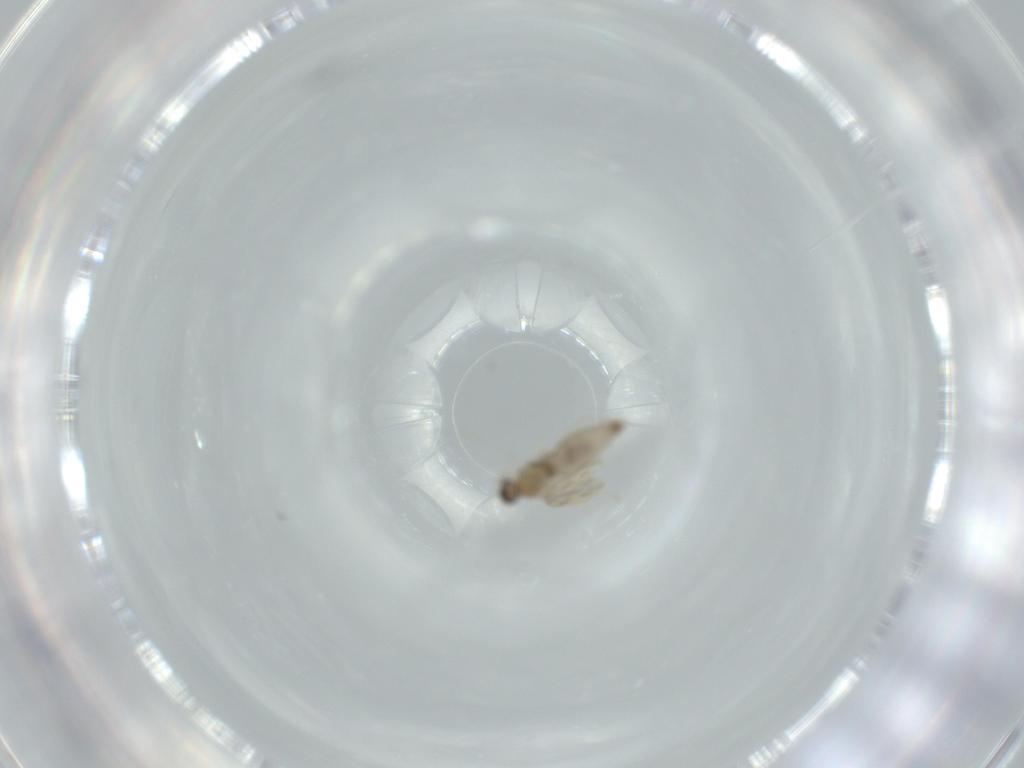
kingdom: Animalia
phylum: Arthropoda
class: Insecta
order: Diptera
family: Cecidomyiidae
